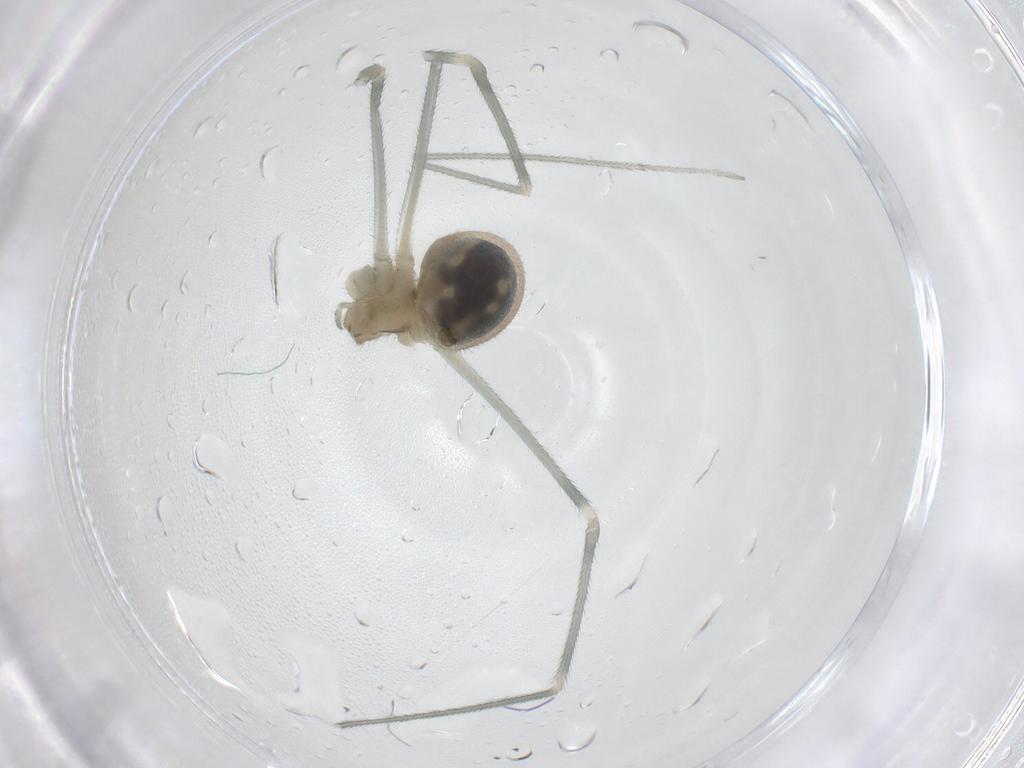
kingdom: Animalia
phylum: Arthropoda
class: Arachnida
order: Araneae
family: Pholcidae
